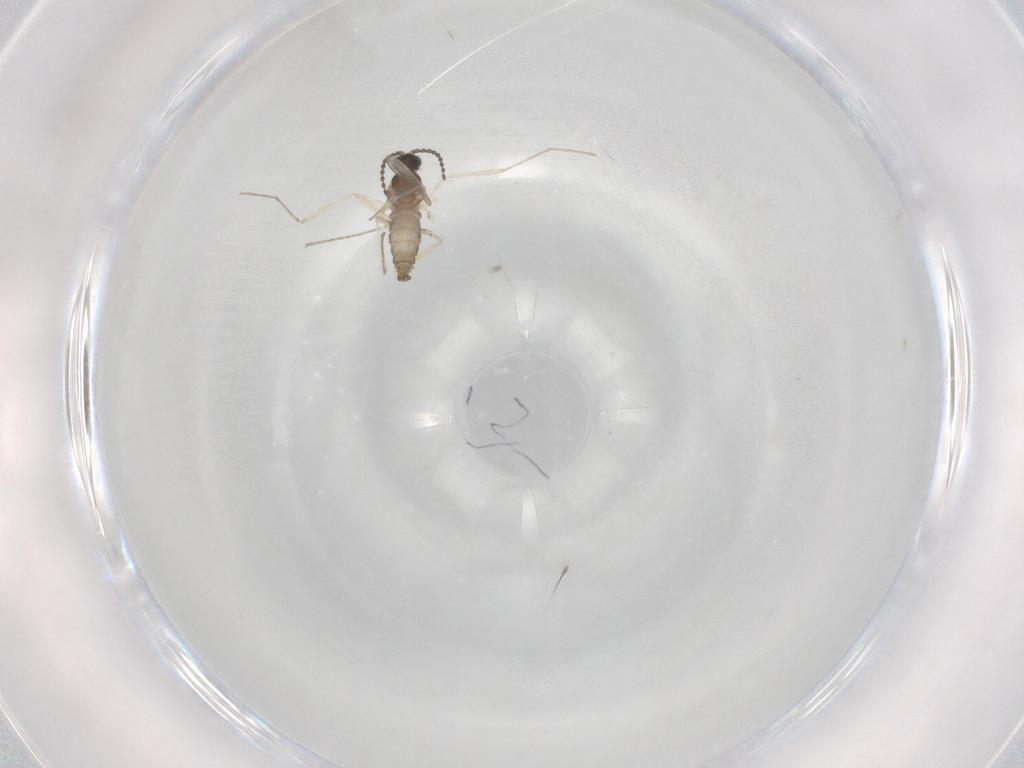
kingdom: Animalia
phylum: Arthropoda
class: Insecta
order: Diptera
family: Cecidomyiidae
